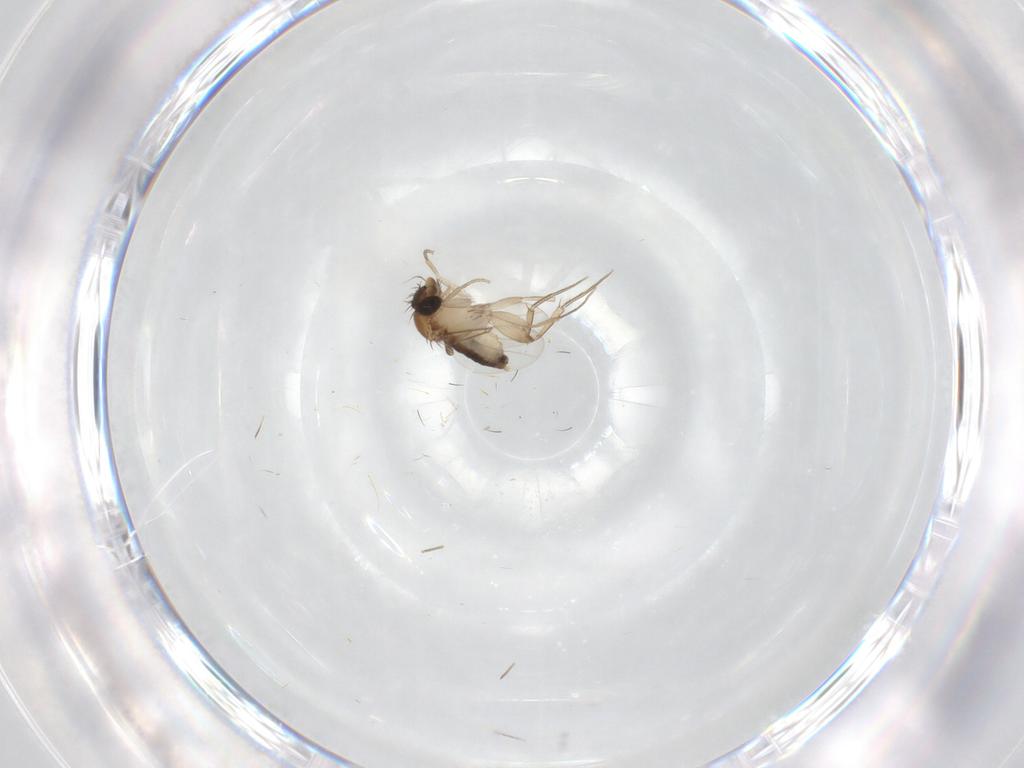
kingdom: Animalia
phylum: Arthropoda
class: Insecta
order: Diptera
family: Phoridae
